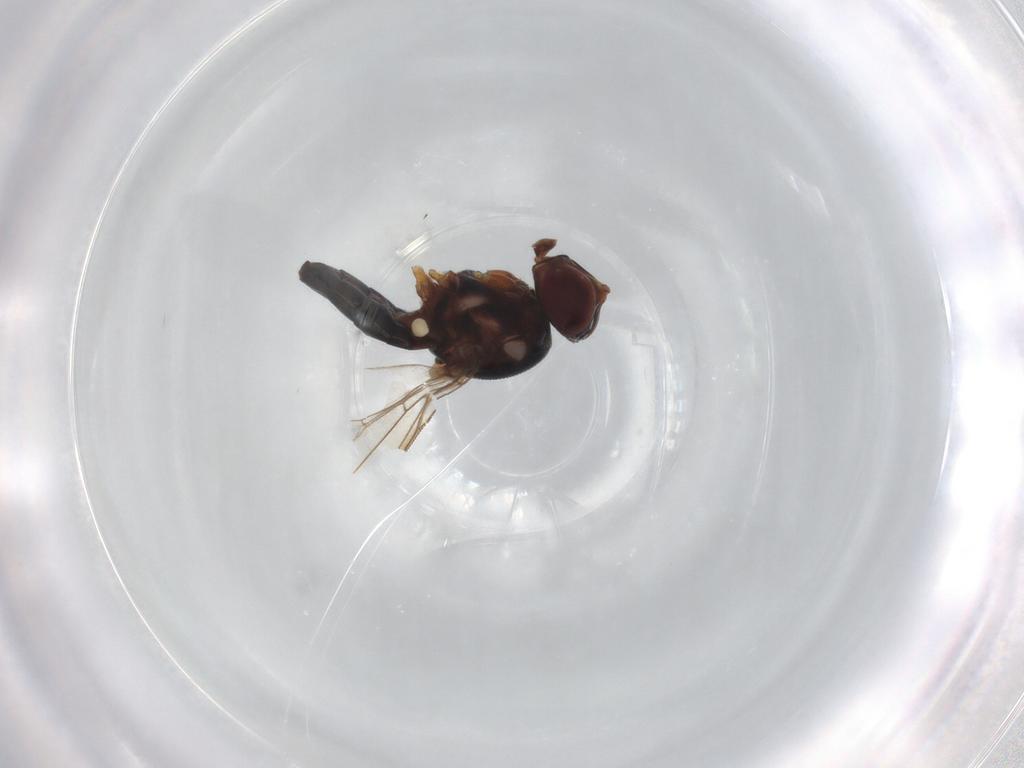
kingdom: Animalia
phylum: Arthropoda
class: Insecta
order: Diptera
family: Chloropidae
